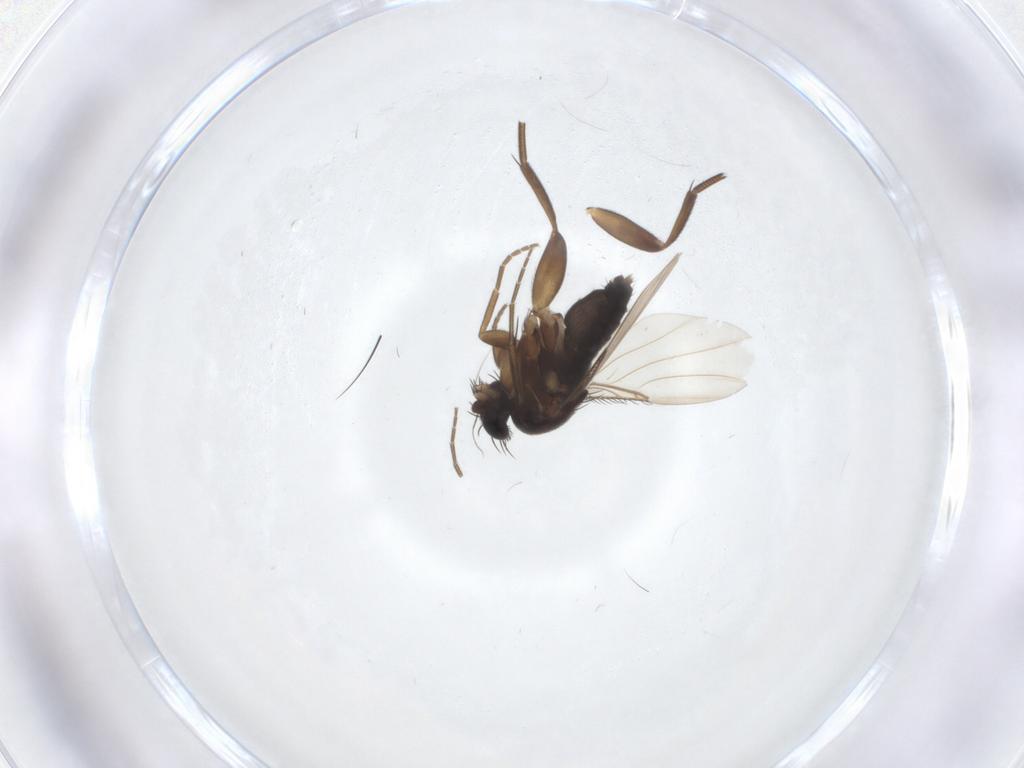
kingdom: Animalia
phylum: Arthropoda
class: Insecta
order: Diptera
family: Phoridae
